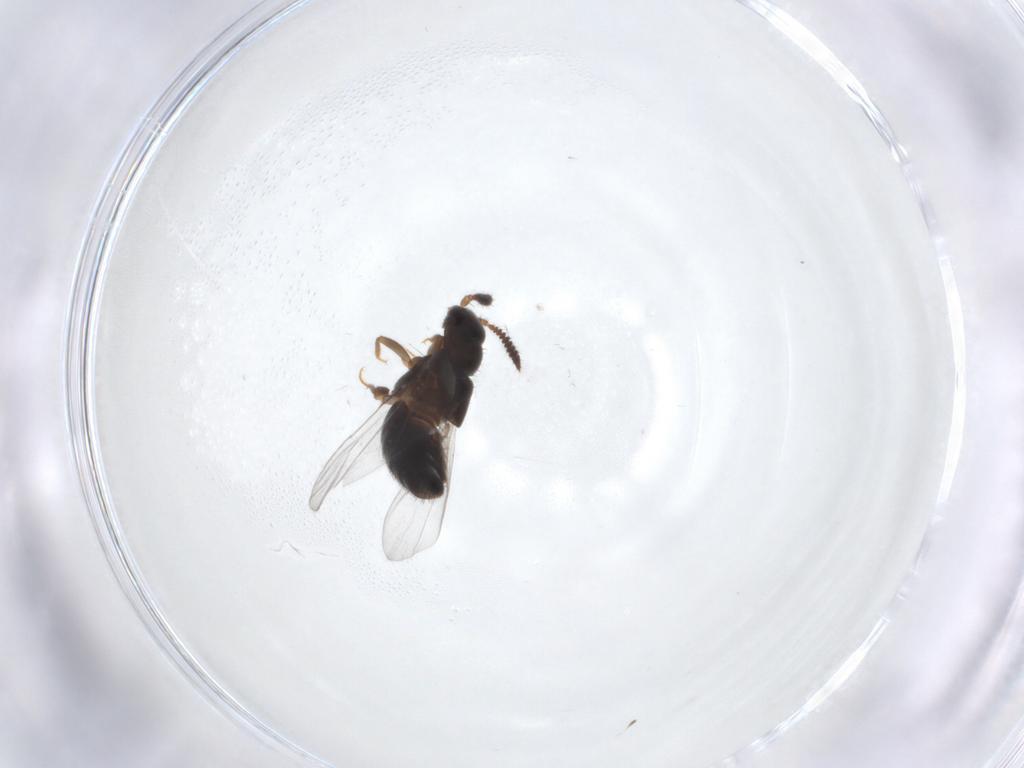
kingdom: Animalia
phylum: Arthropoda
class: Insecta
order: Coleoptera
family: Staphylinidae
